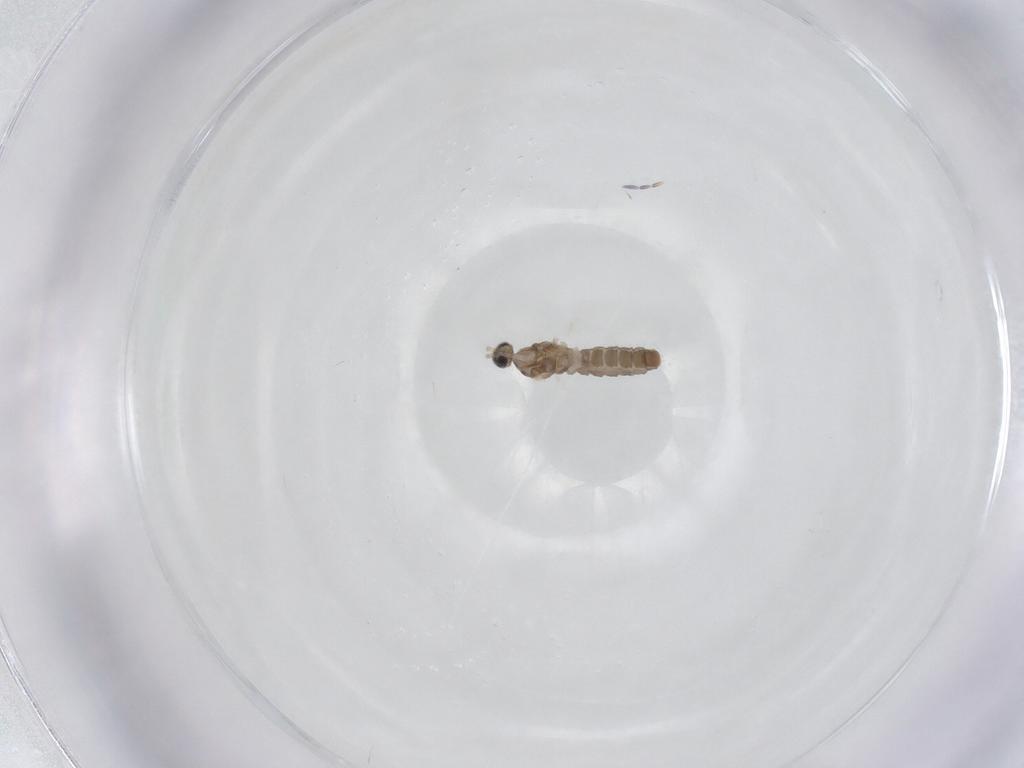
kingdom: Animalia
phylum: Arthropoda
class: Insecta
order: Diptera
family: Cecidomyiidae
